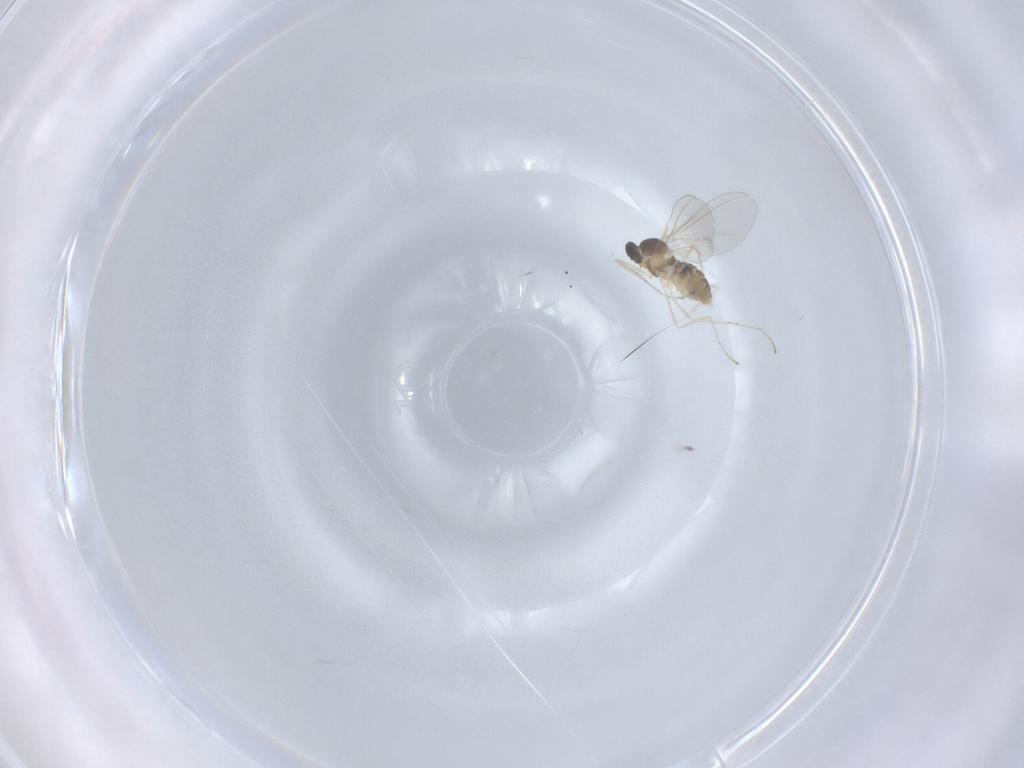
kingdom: Animalia
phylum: Arthropoda
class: Insecta
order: Diptera
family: Cecidomyiidae
